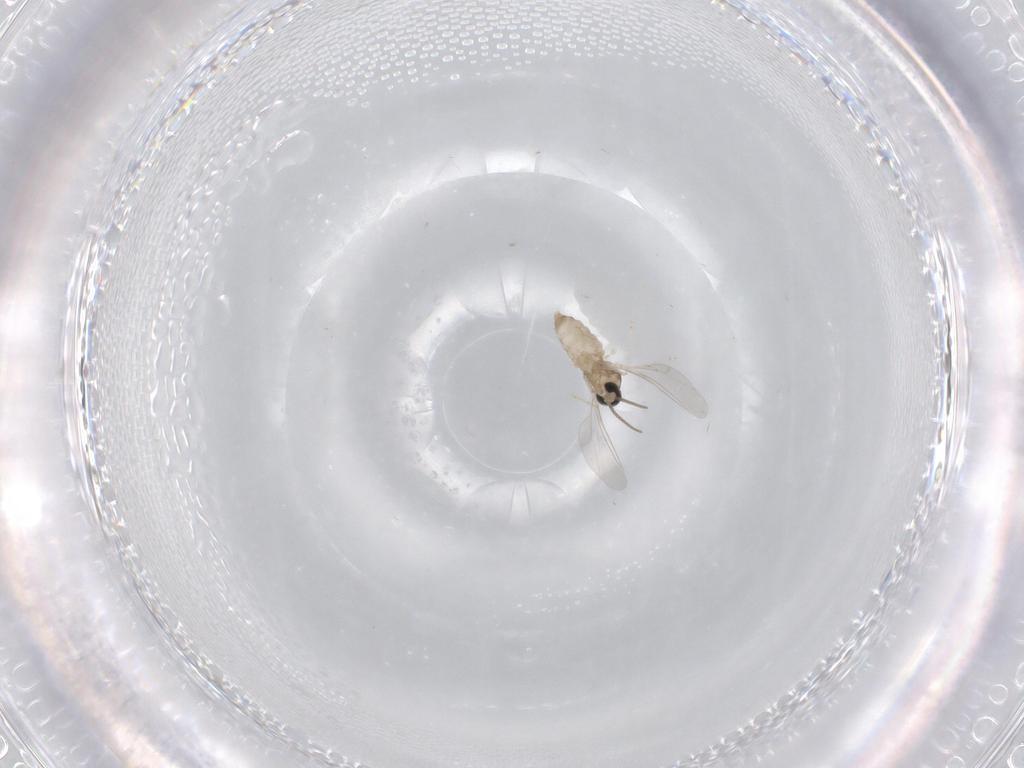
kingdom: Animalia
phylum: Arthropoda
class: Insecta
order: Diptera
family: Cecidomyiidae
